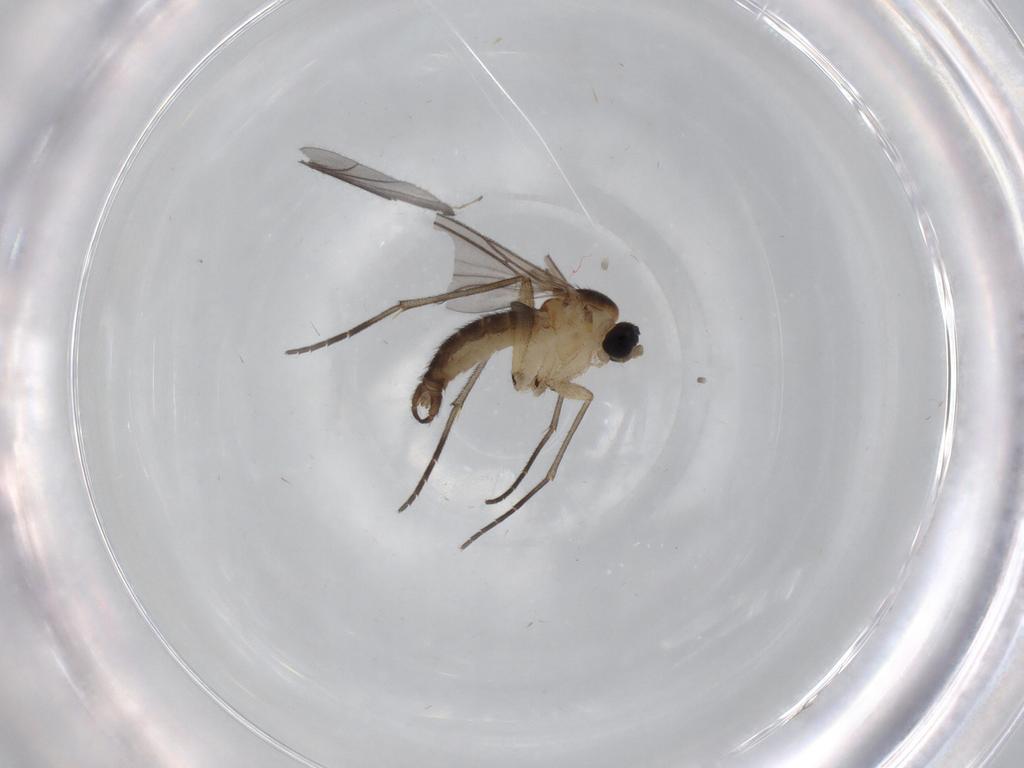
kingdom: Animalia
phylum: Arthropoda
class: Insecta
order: Diptera
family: Sciaridae
